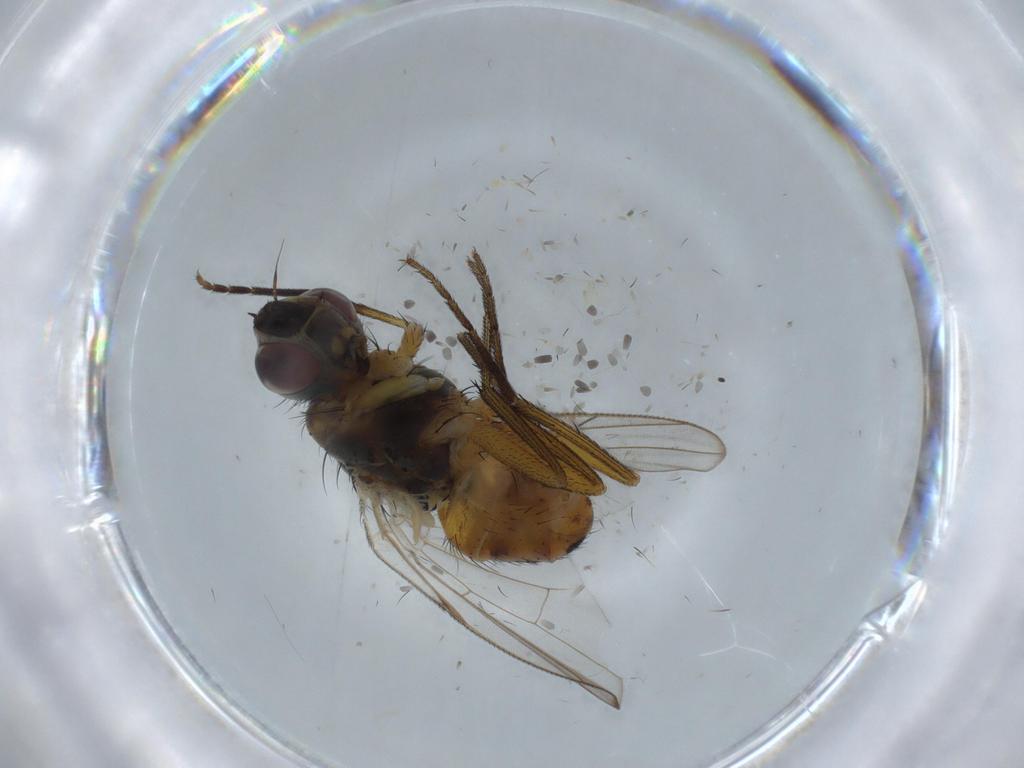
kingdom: Animalia
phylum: Arthropoda
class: Insecta
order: Diptera
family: Muscidae
